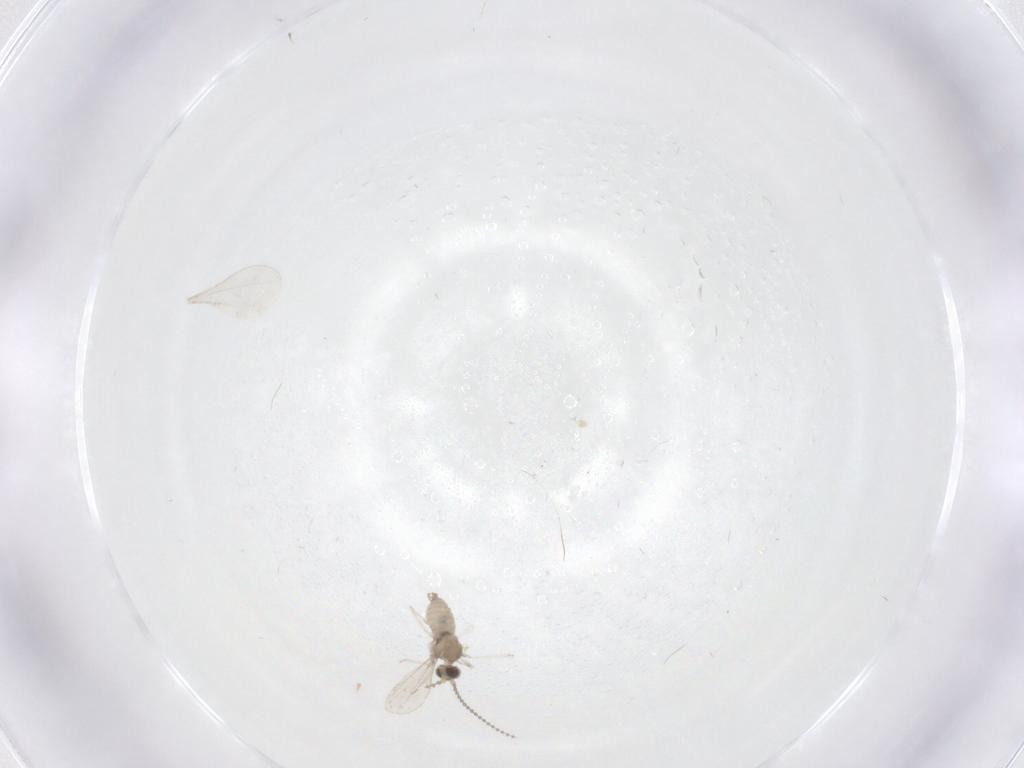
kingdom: Animalia
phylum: Arthropoda
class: Insecta
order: Diptera
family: Cecidomyiidae
